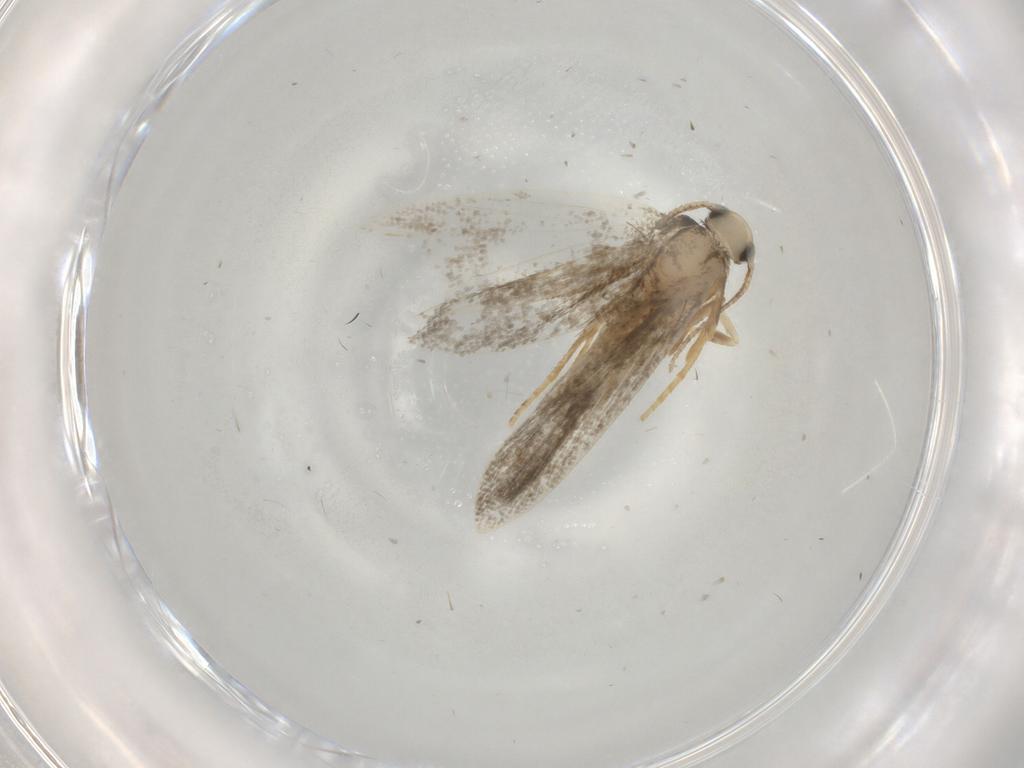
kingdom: Animalia
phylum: Arthropoda
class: Insecta
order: Lepidoptera
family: Psychidae
